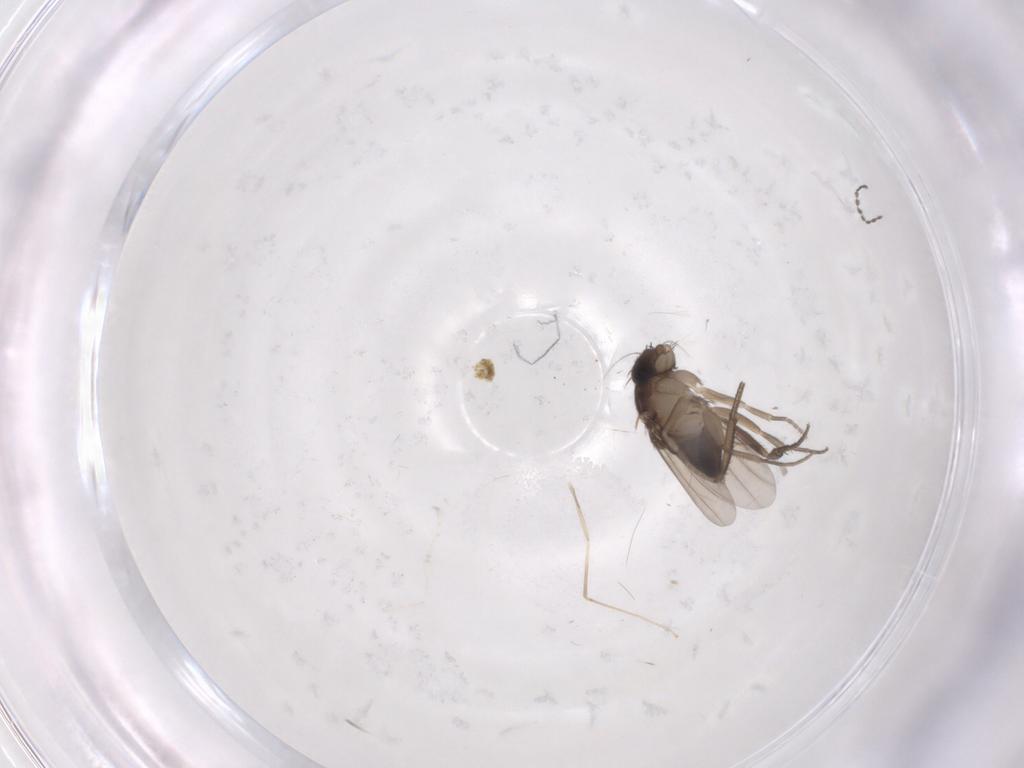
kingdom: Animalia
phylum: Arthropoda
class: Insecta
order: Diptera
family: Phoridae
